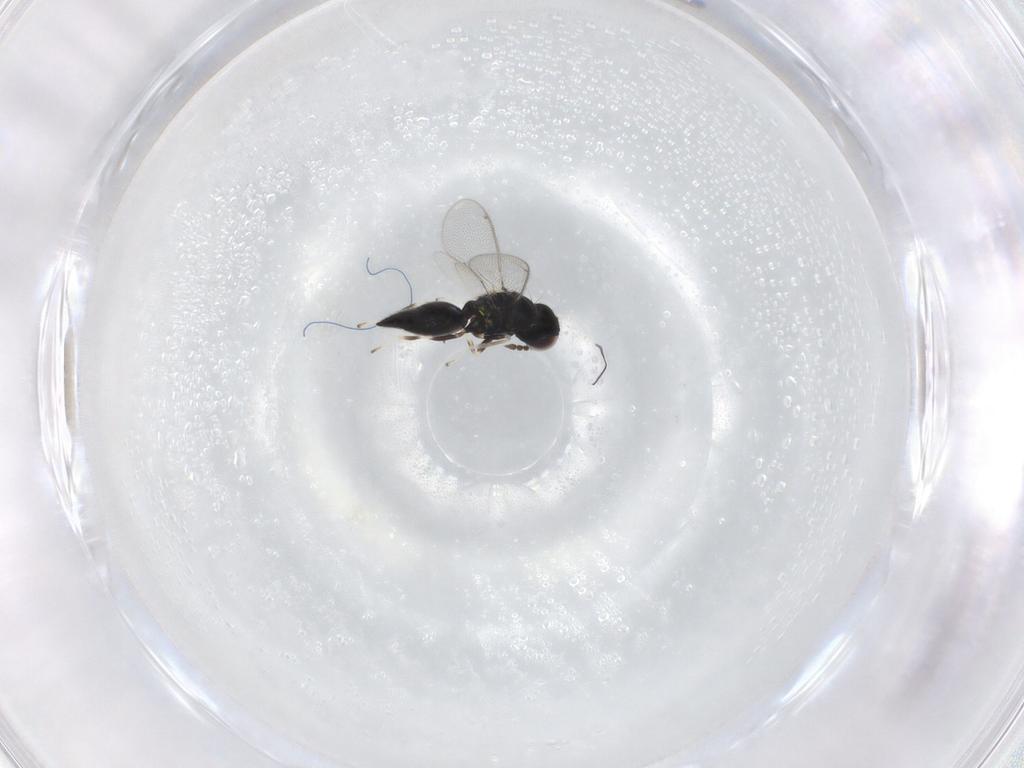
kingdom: Animalia
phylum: Arthropoda
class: Insecta
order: Hymenoptera
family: Eulophidae
